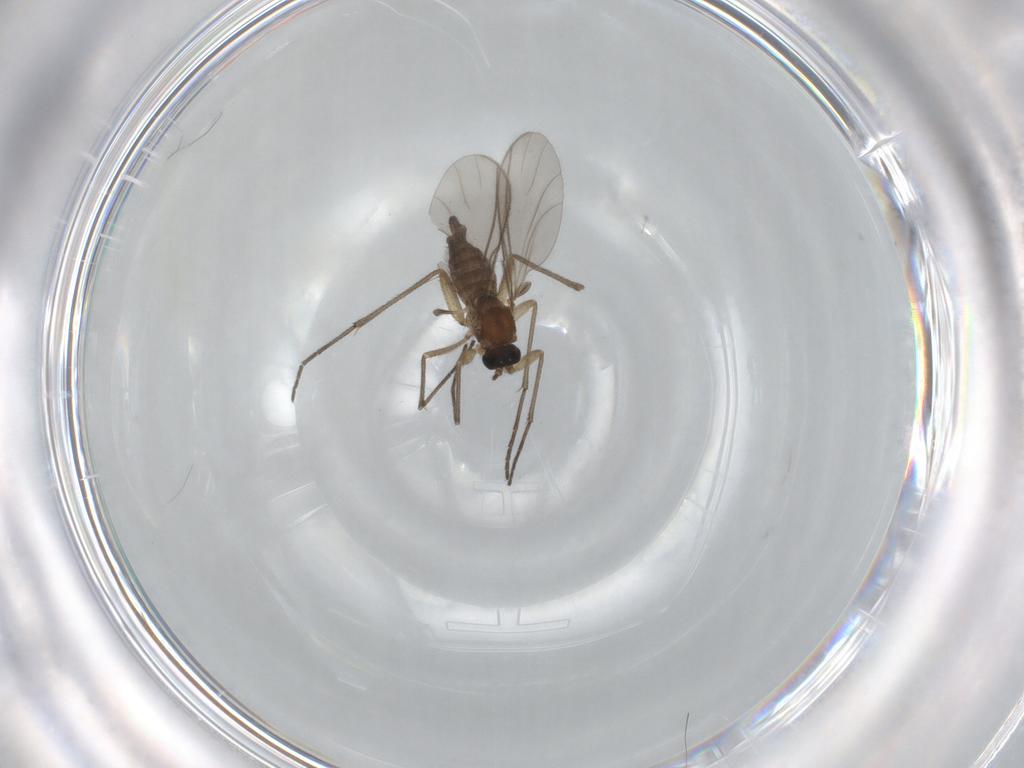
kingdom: Animalia
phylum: Arthropoda
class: Insecta
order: Diptera
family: Sciaridae
